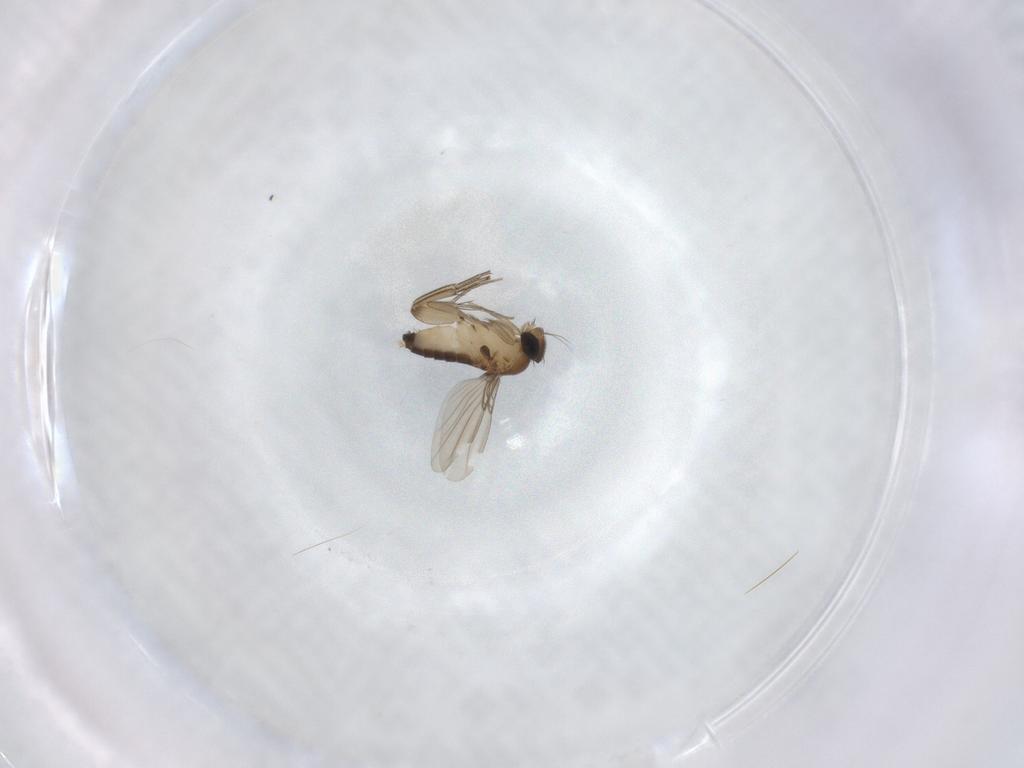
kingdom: Animalia
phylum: Arthropoda
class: Insecta
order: Diptera
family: Phoridae
